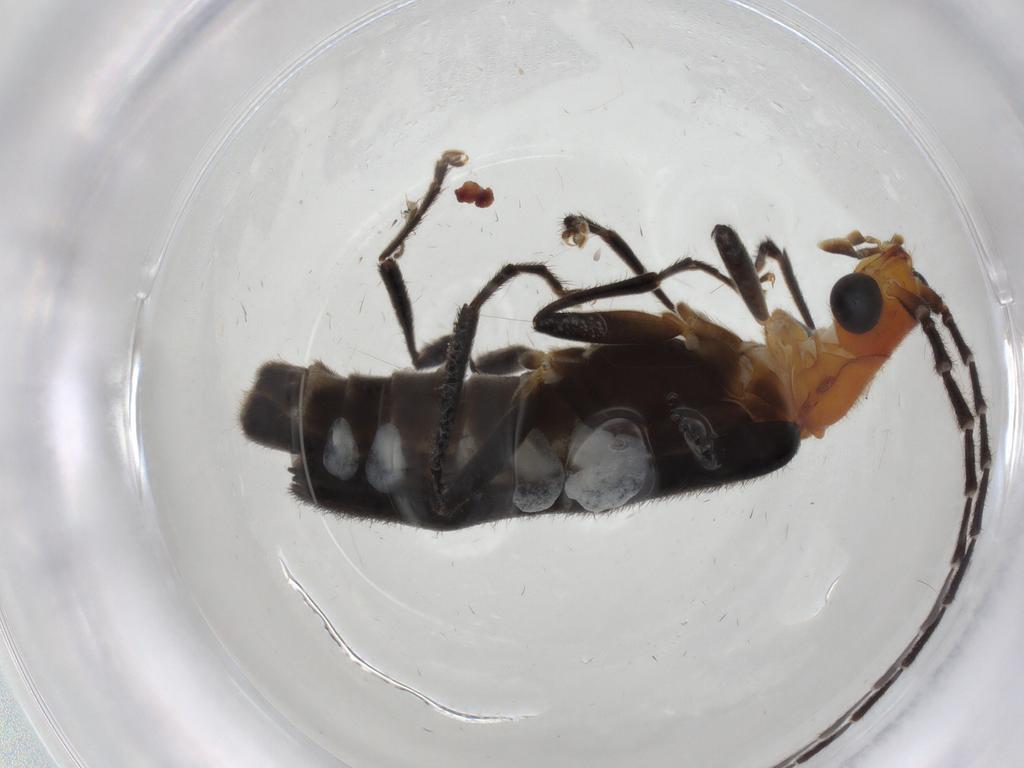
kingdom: Animalia
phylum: Arthropoda
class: Insecta
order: Coleoptera
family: Cantharidae
